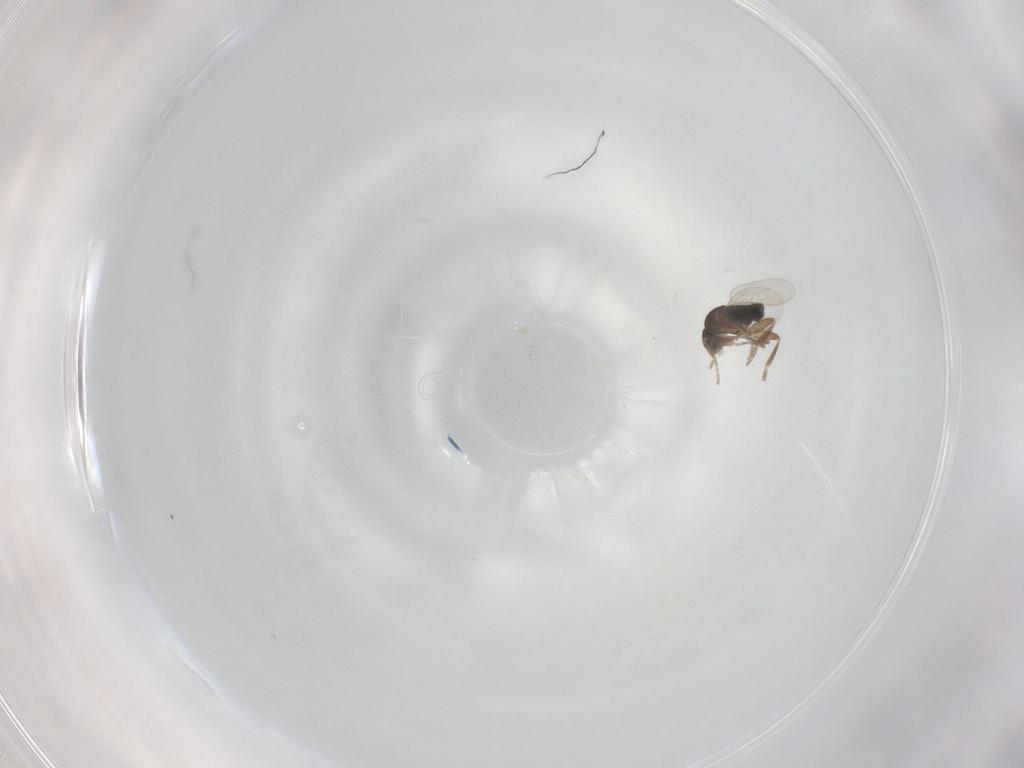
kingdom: Animalia
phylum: Arthropoda
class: Insecta
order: Diptera
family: Phoridae
